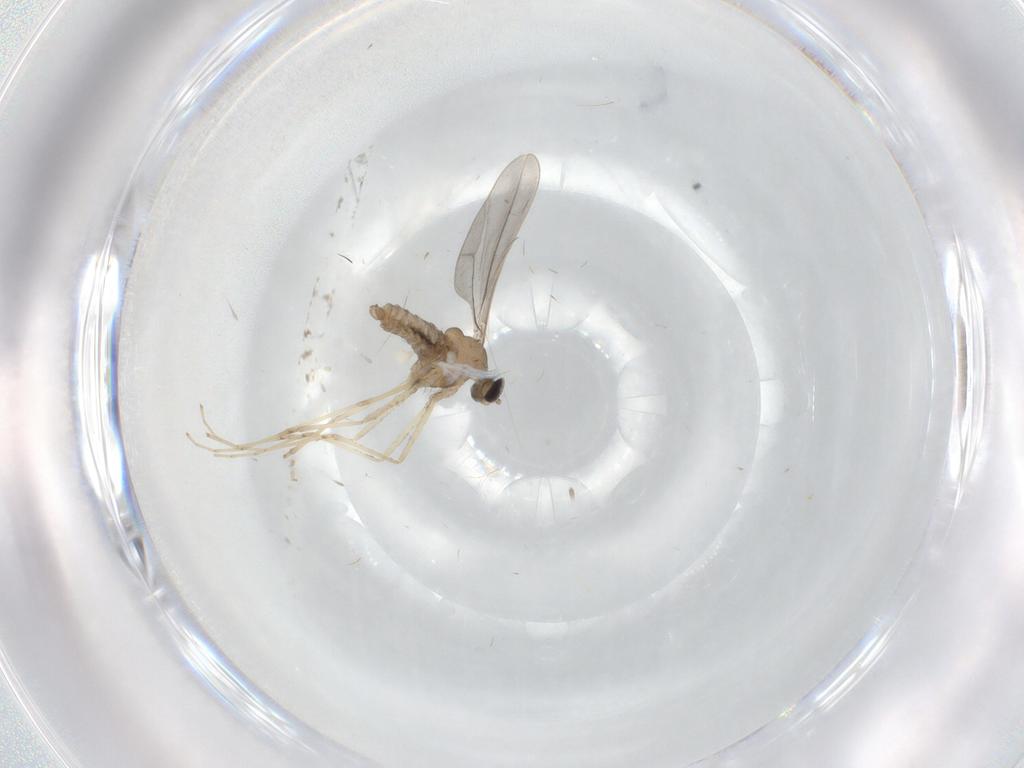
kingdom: Animalia
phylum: Arthropoda
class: Insecta
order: Diptera
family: Cecidomyiidae
